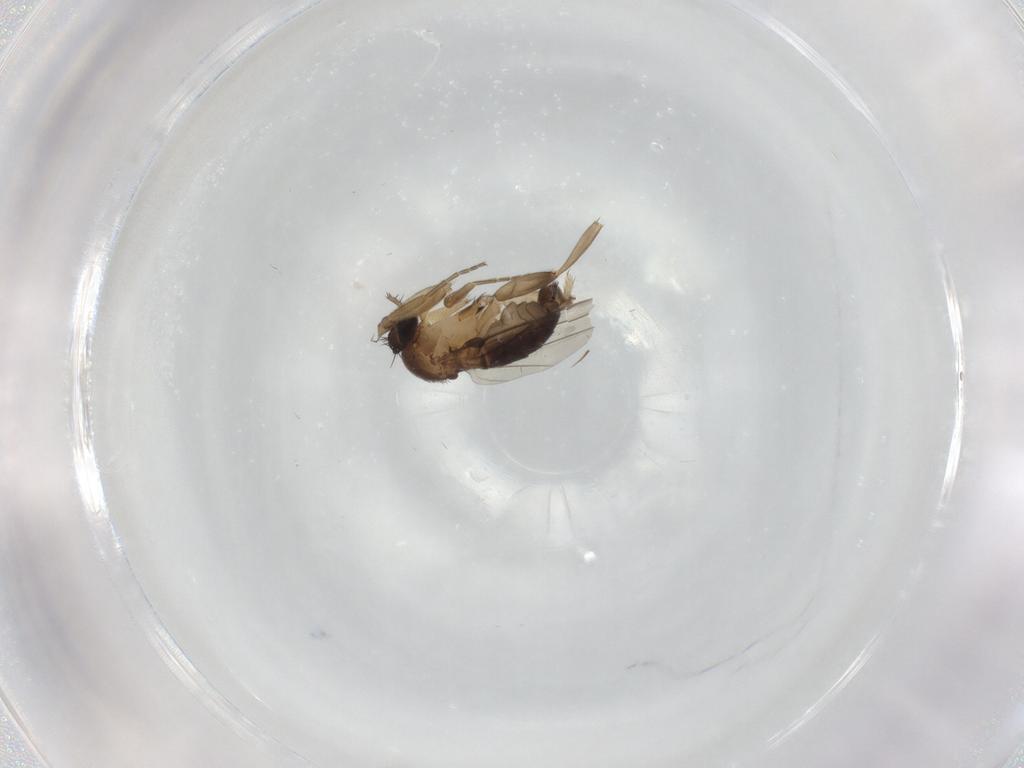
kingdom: Animalia
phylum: Arthropoda
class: Insecta
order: Diptera
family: Phoridae
